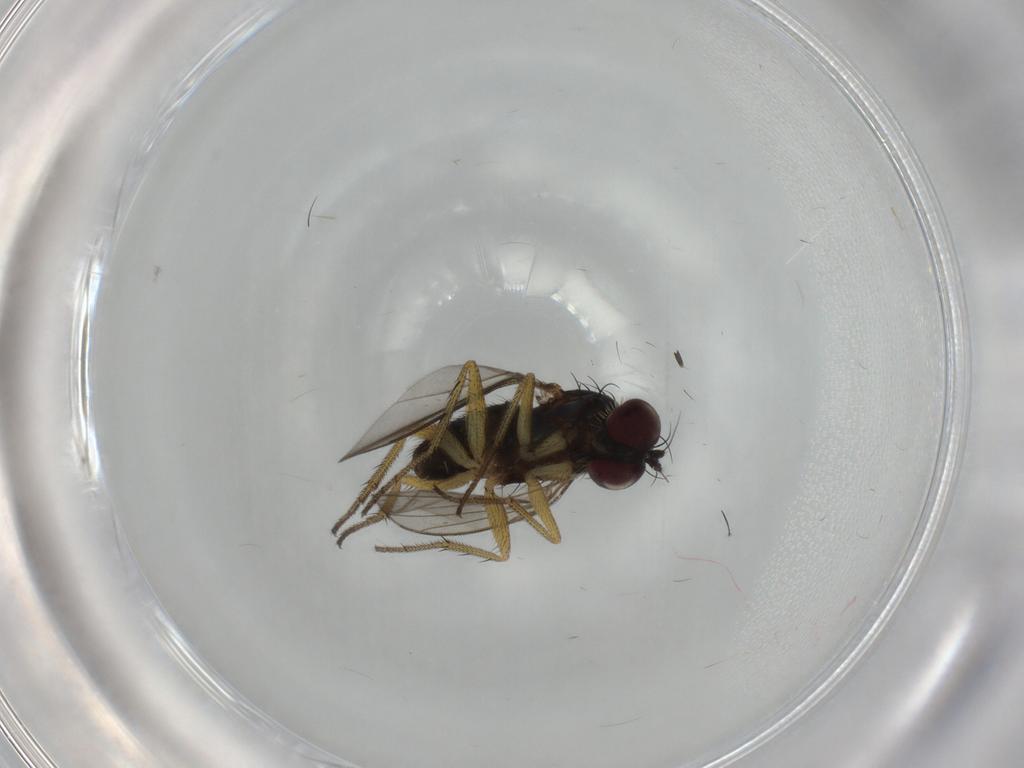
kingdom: Animalia
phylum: Arthropoda
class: Insecta
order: Diptera
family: Dolichopodidae
